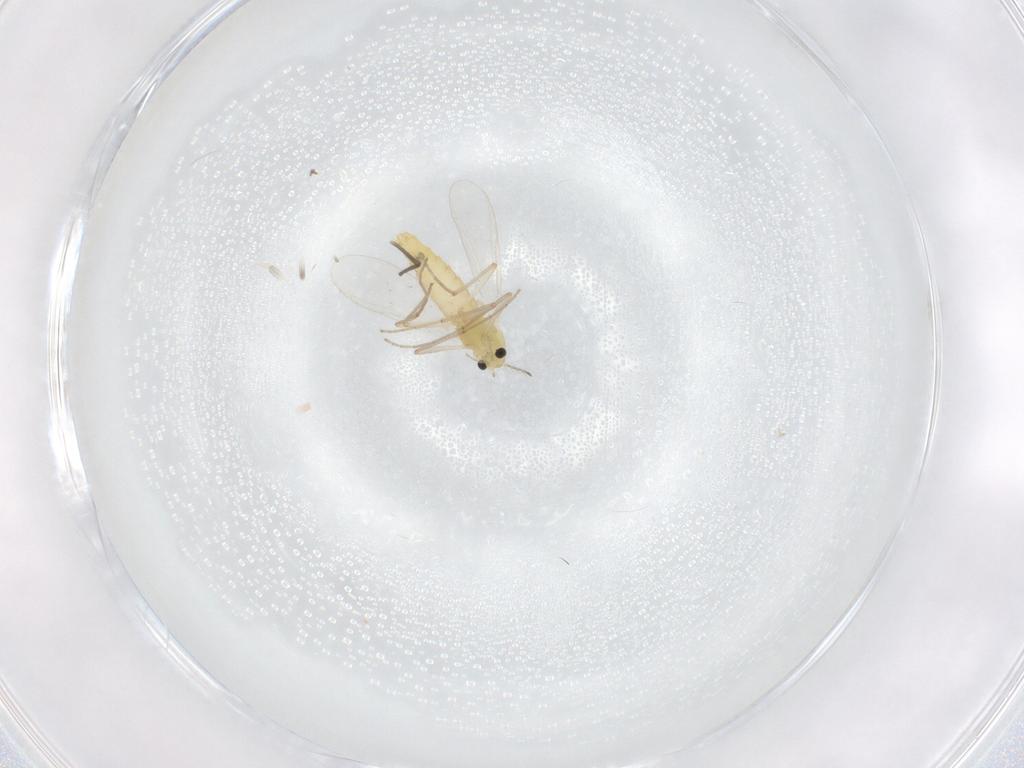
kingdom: Animalia
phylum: Arthropoda
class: Insecta
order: Diptera
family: Chironomidae
